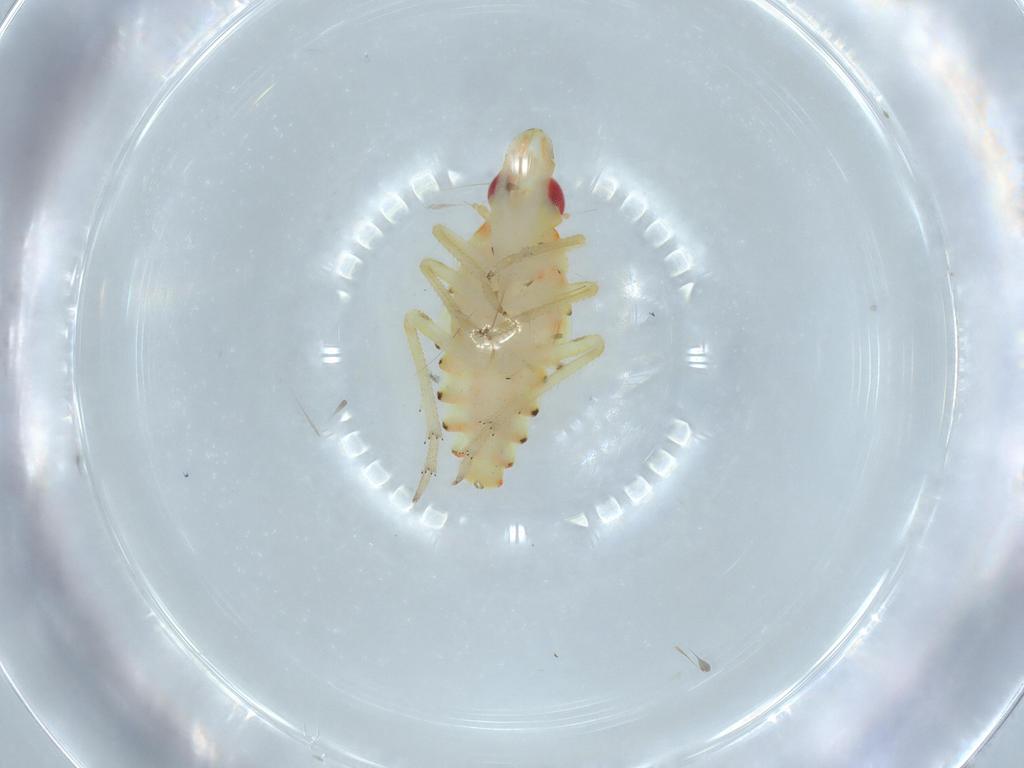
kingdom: Animalia
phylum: Arthropoda
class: Insecta
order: Hemiptera
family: Tropiduchidae
